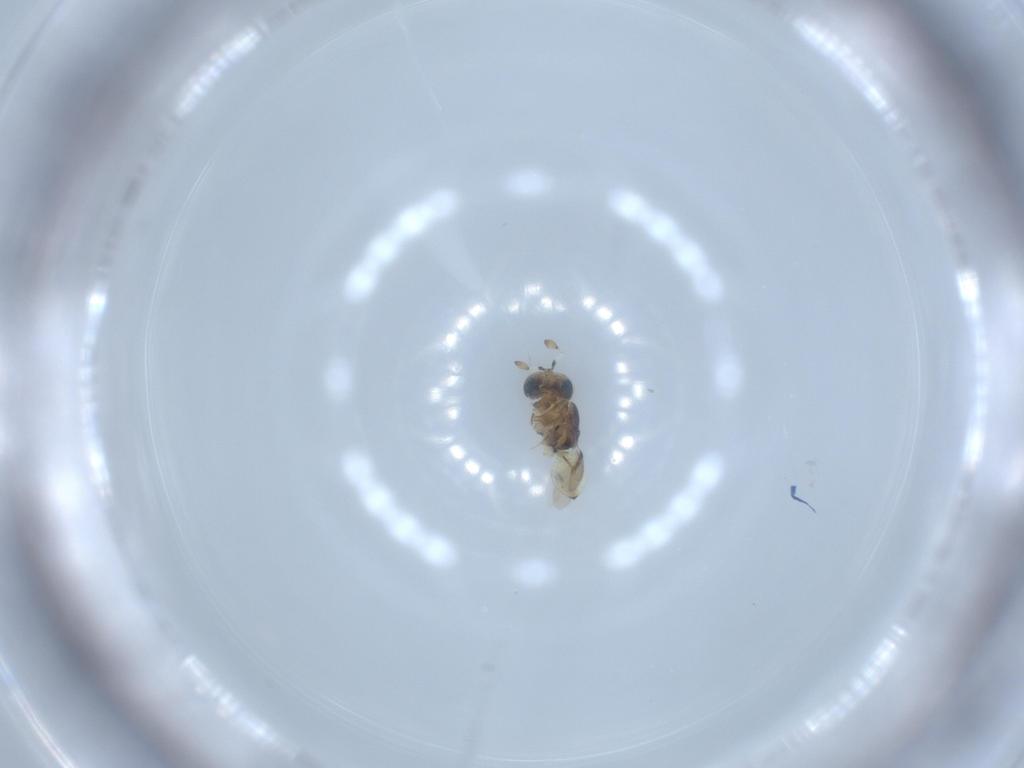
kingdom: Animalia
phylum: Arthropoda
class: Insecta
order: Hymenoptera
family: Scelionidae
